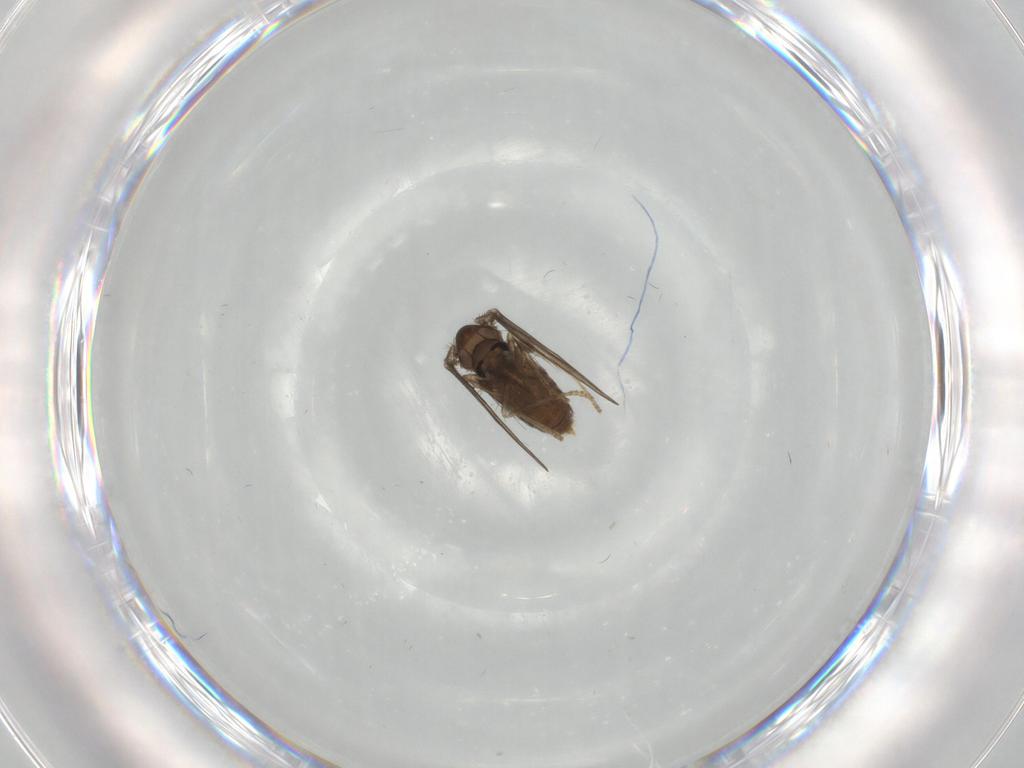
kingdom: Animalia
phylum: Arthropoda
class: Insecta
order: Diptera
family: Psychodidae
